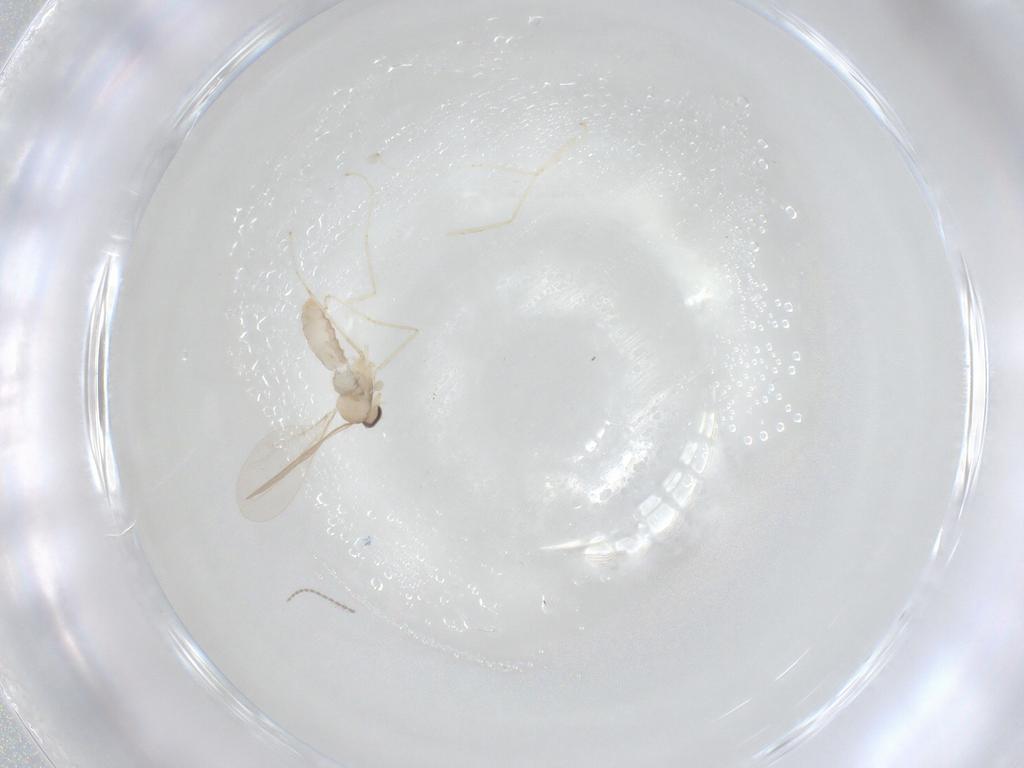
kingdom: Animalia
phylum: Arthropoda
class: Insecta
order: Diptera
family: Cecidomyiidae
